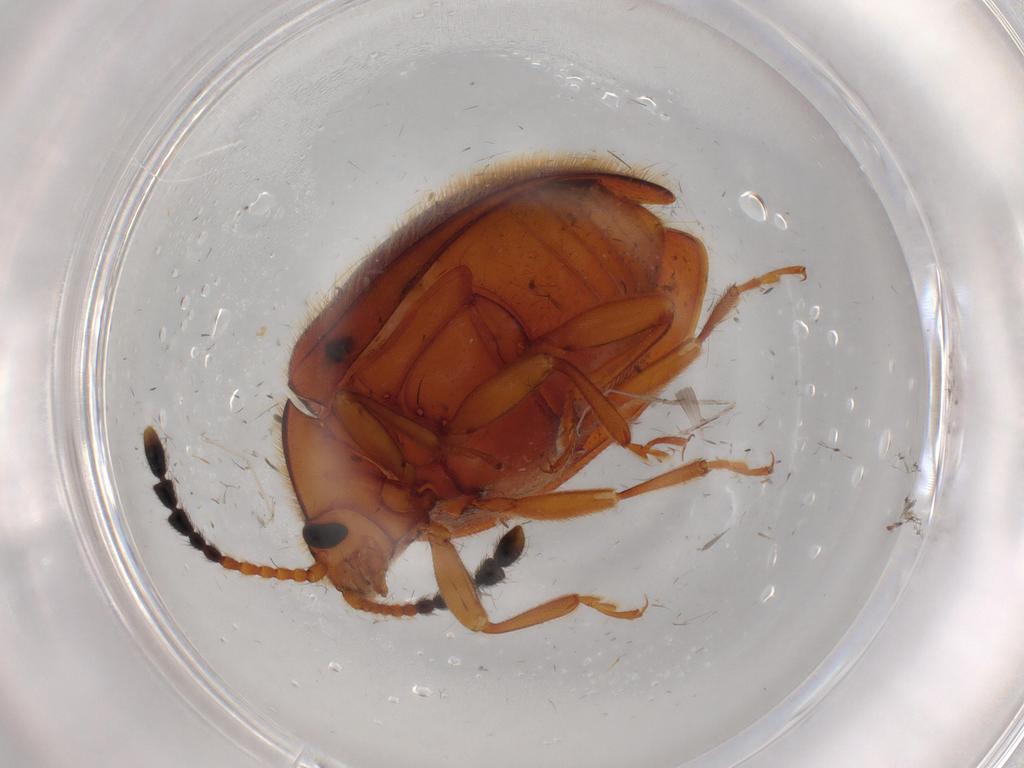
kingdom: Animalia
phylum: Arthropoda
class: Insecta
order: Coleoptera
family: Endomychidae
